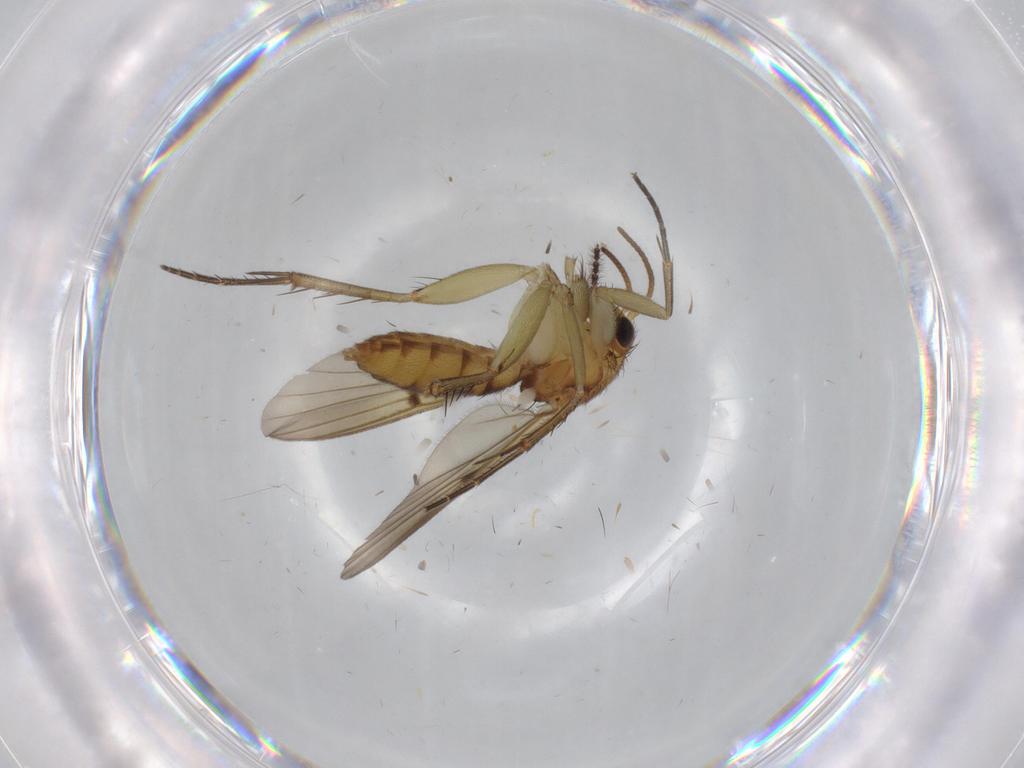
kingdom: Animalia
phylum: Arthropoda
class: Insecta
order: Diptera
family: Mycetophilidae
